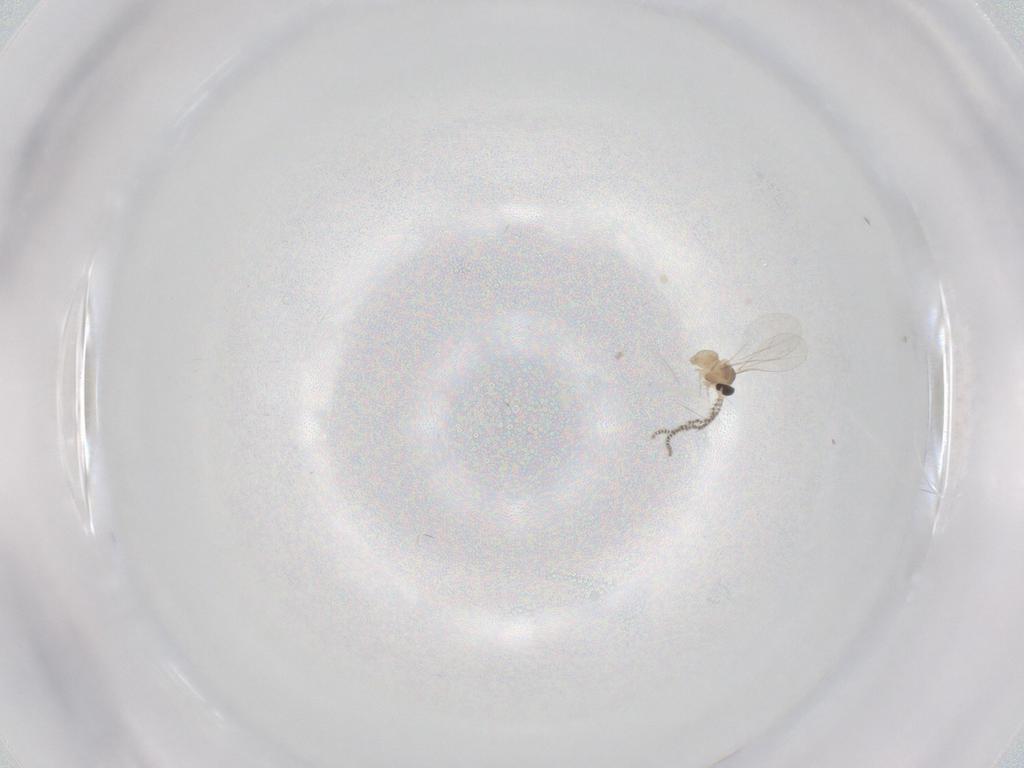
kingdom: Animalia
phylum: Arthropoda
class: Insecta
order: Diptera
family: Cecidomyiidae
